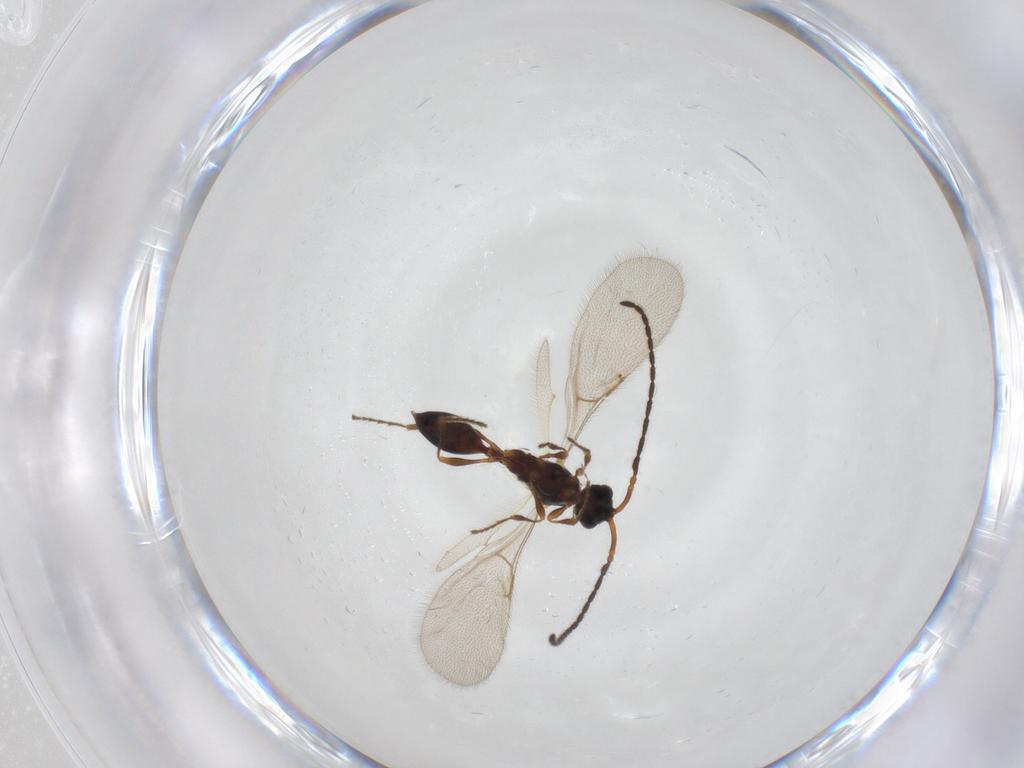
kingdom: Animalia
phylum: Arthropoda
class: Insecta
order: Hymenoptera
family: Diapriidae
